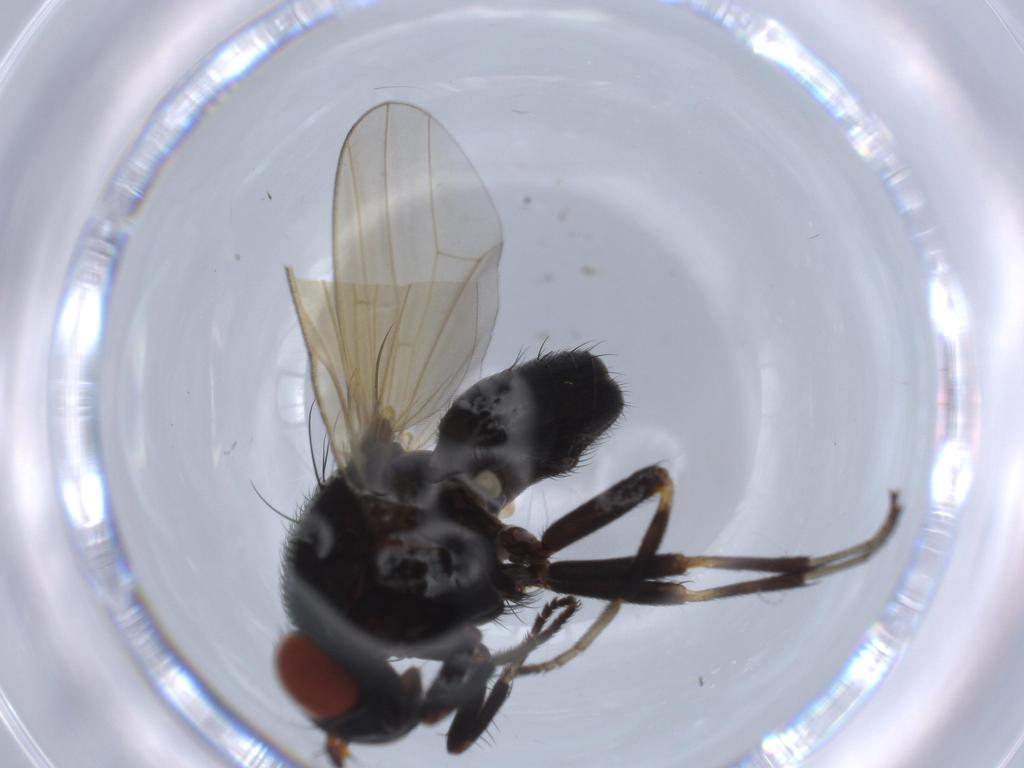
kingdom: Animalia
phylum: Arthropoda
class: Insecta
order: Diptera
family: Lauxaniidae
